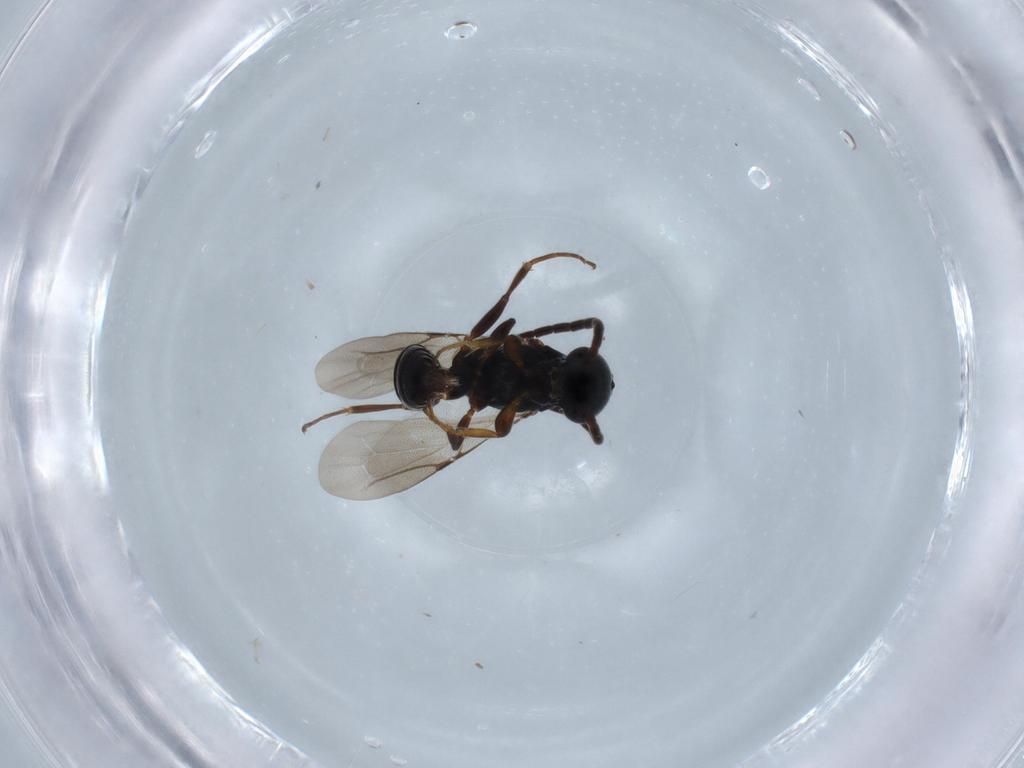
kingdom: Animalia
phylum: Arthropoda
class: Insecta
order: Hymenoptera
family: Bethylidae
